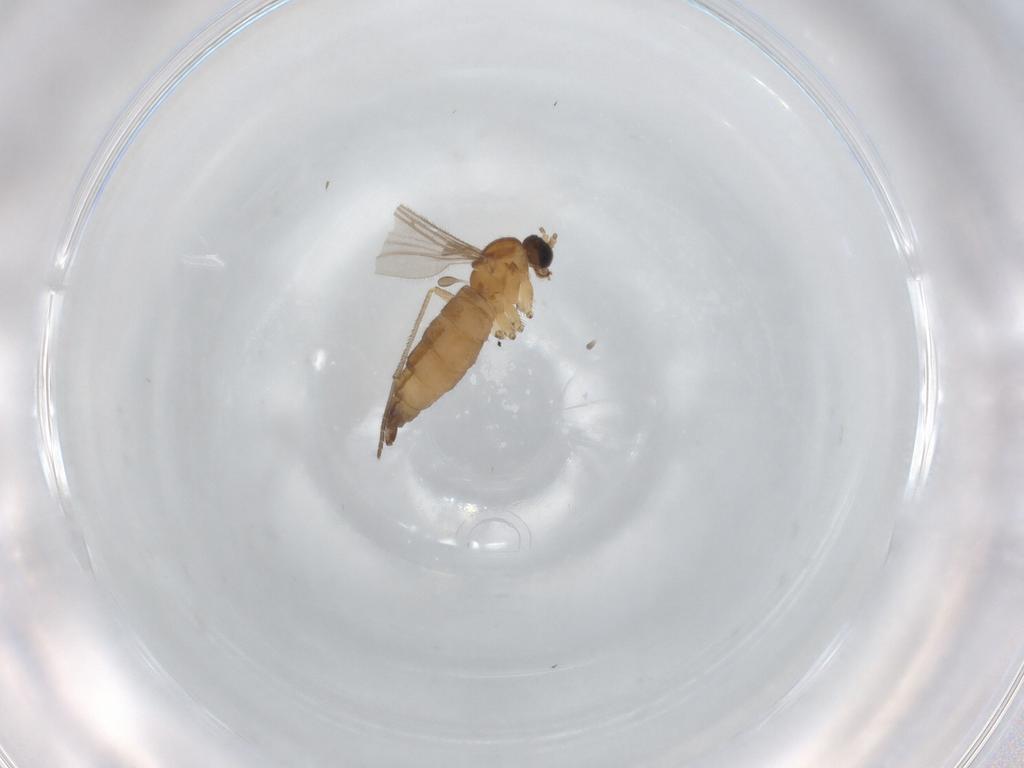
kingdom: Animalia
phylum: Arthropoda
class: Insecta
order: Diptera
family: Sciaridae
